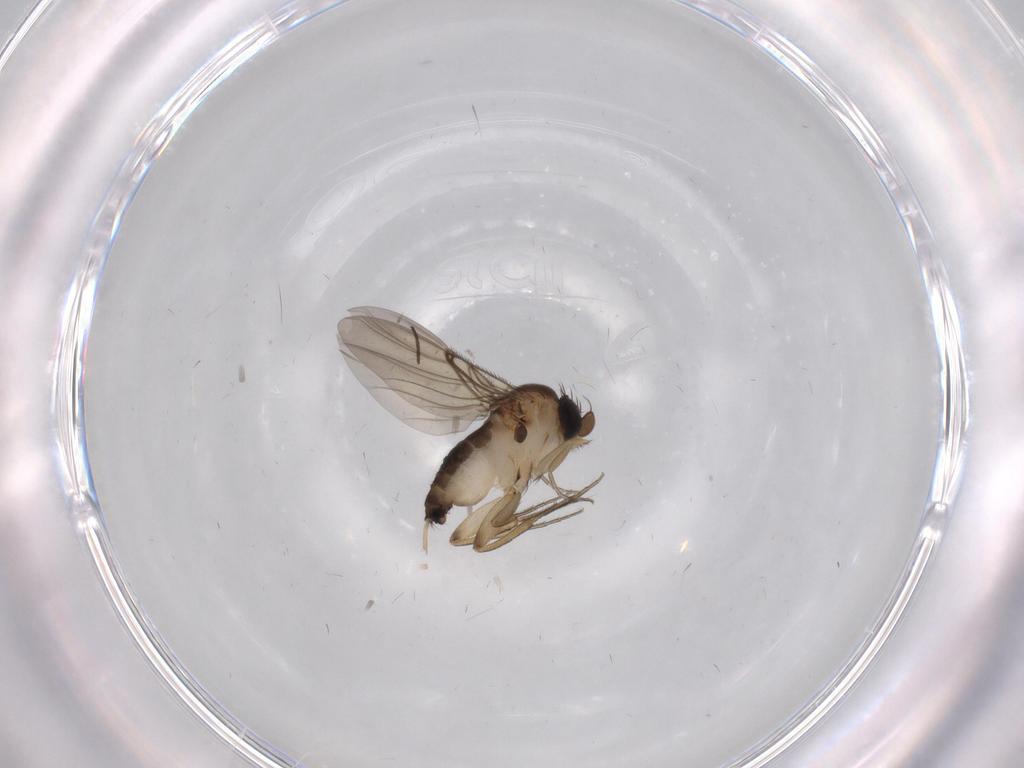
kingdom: Animalia
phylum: Arthropoda
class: Insecta
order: Diptera
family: Phoridae
